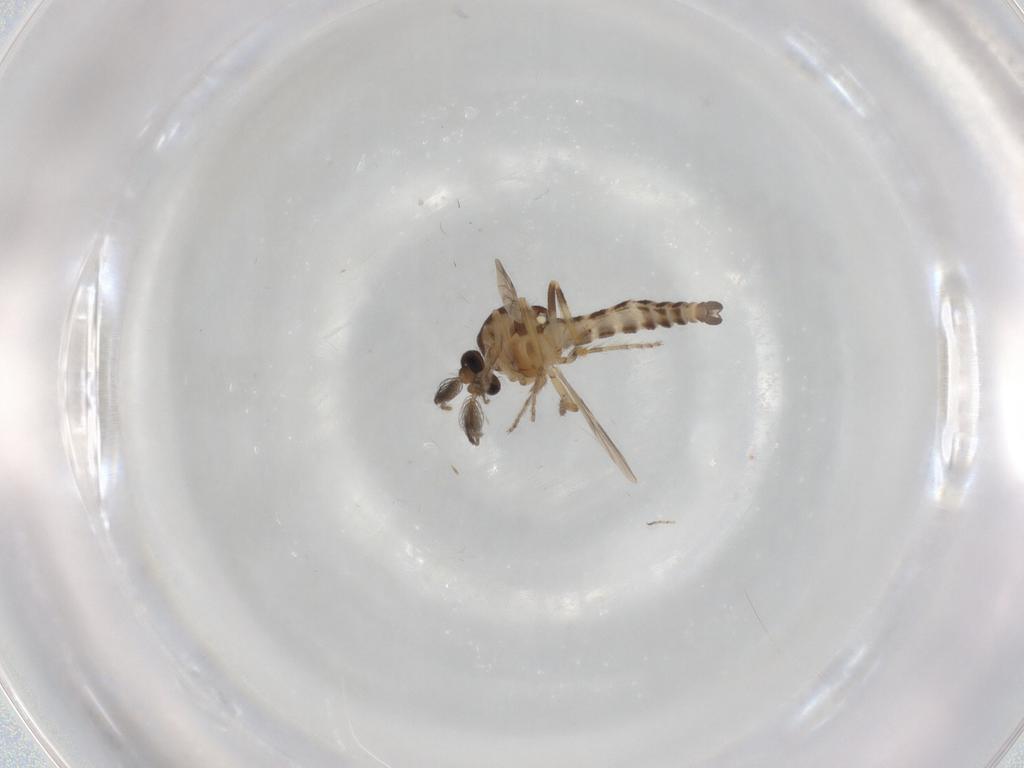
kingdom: Animalia
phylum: Arthropoda
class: Insecta
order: Diptera
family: Ceratopogonidae
